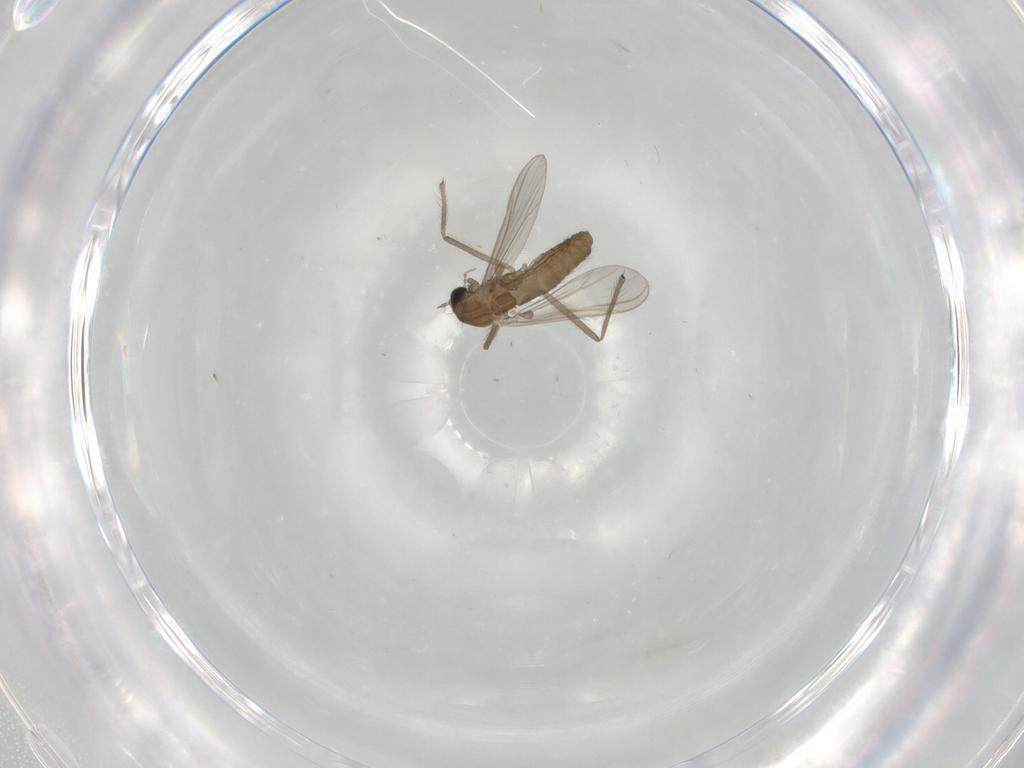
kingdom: Animalia
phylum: Arthropoda
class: Insecta
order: Diptera
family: Chironomidae
